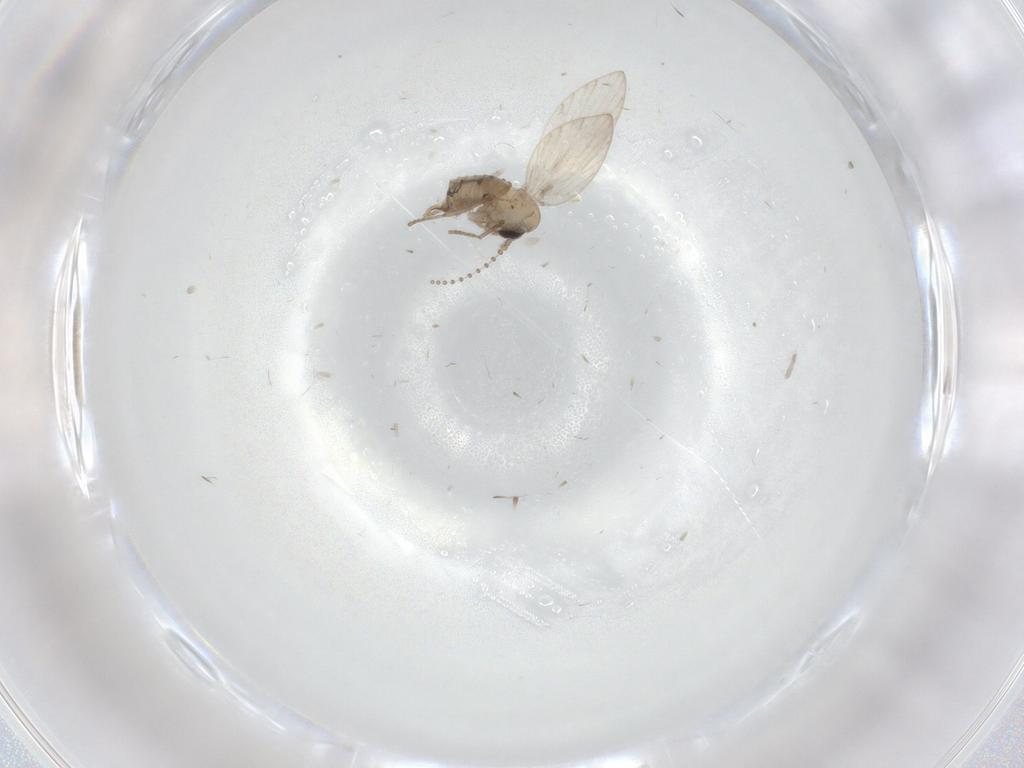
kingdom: Animalia
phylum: Arthropoda
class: Insecta
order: Diptera
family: Psychodidae
